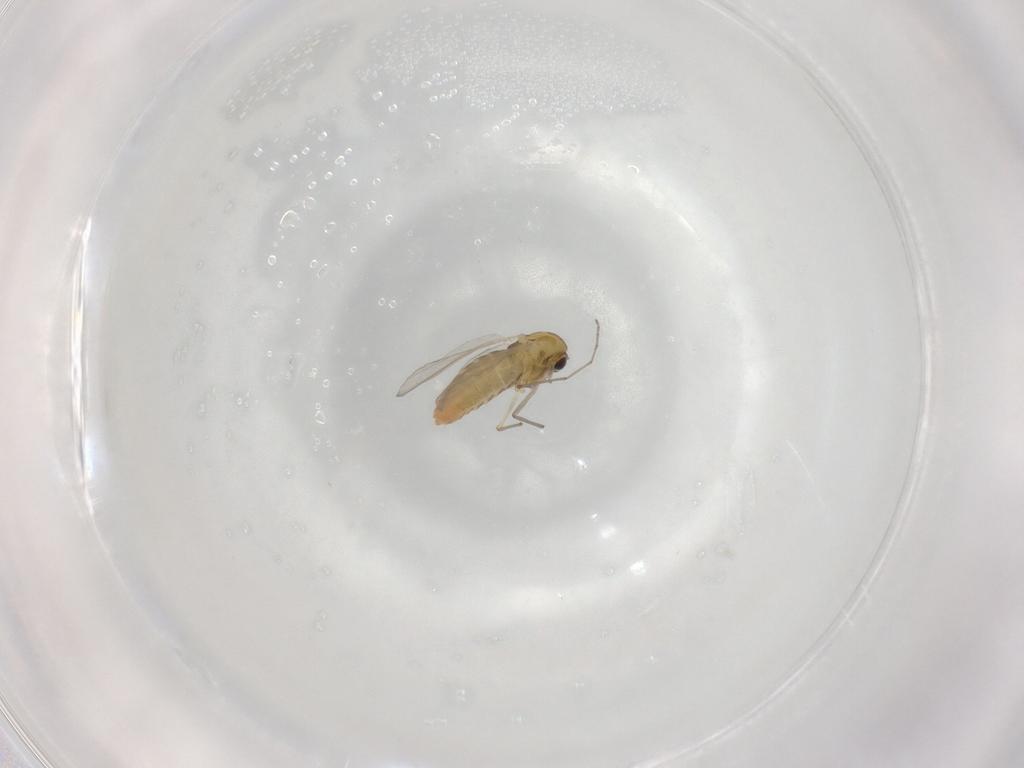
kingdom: Animalia
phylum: Arthropoda
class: Insecta
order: Diptera
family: Chironomidae
